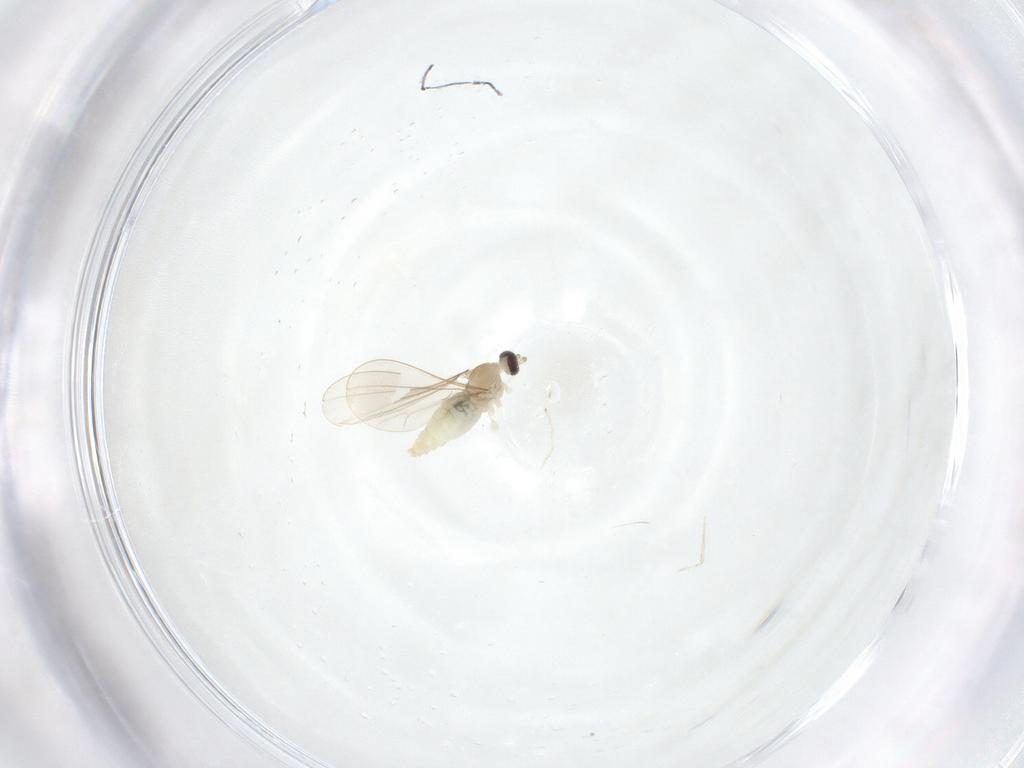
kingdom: Animalia
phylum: Arthropoda
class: Insecta
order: Diptera
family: Cecidomyiidae
